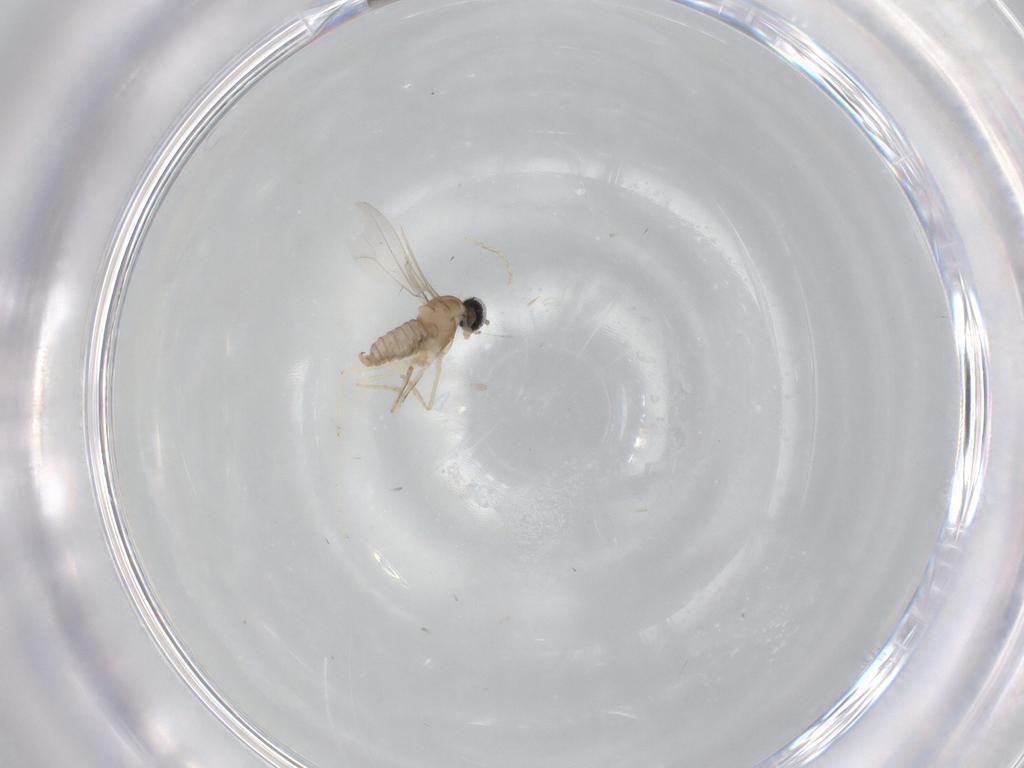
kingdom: Animalia
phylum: Arthropoda
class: Insecta
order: Diptera
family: Cecidomyiidae
